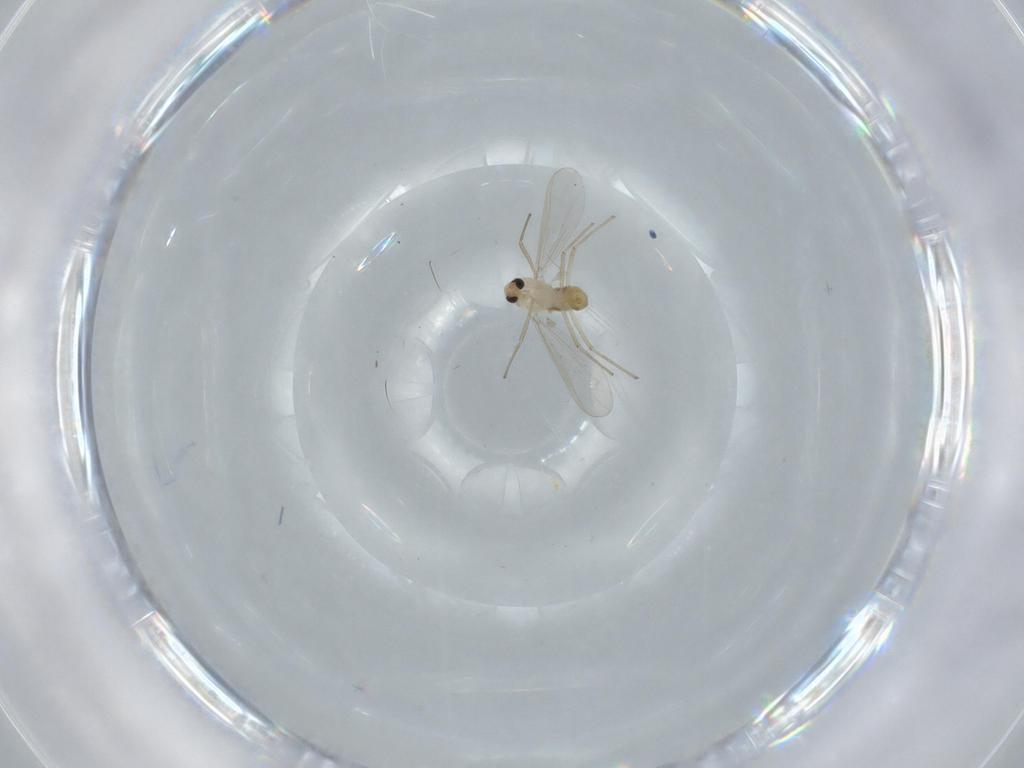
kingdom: Animalia
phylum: Arthropoda
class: Insecta
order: Diptera
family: Chironomidae
